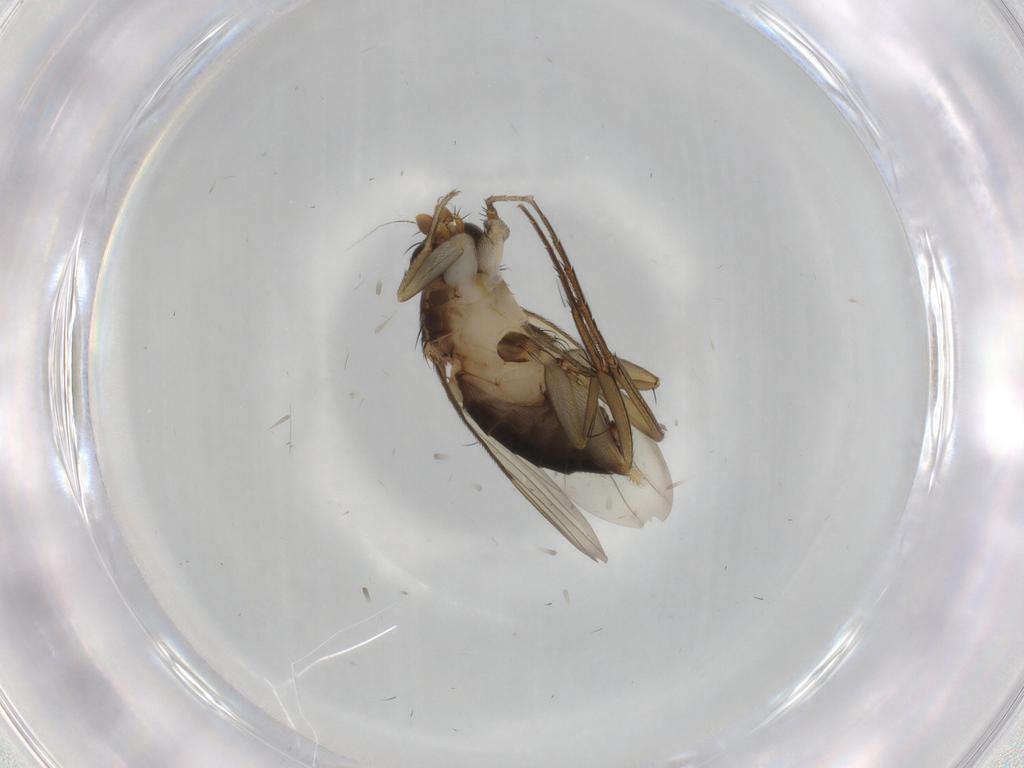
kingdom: Animalia
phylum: Arthropoda
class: Insecta
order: Diptera
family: Phoridae
